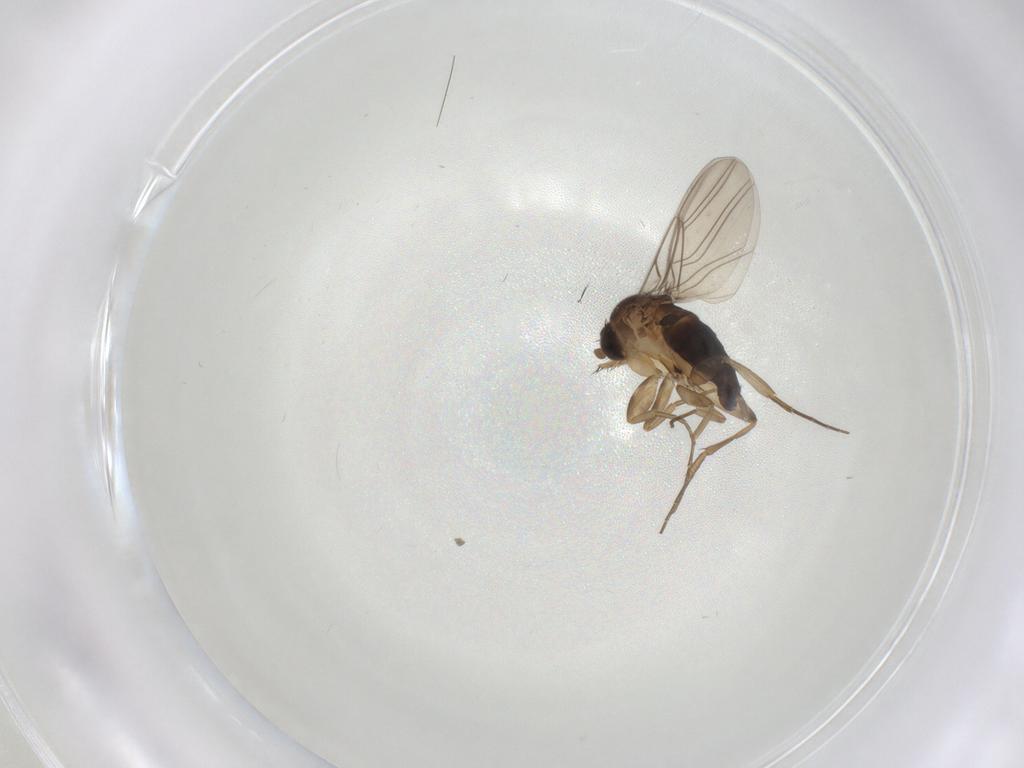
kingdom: Animalia
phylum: Arthropoda
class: Insecta
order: Diptera
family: Phoridae
